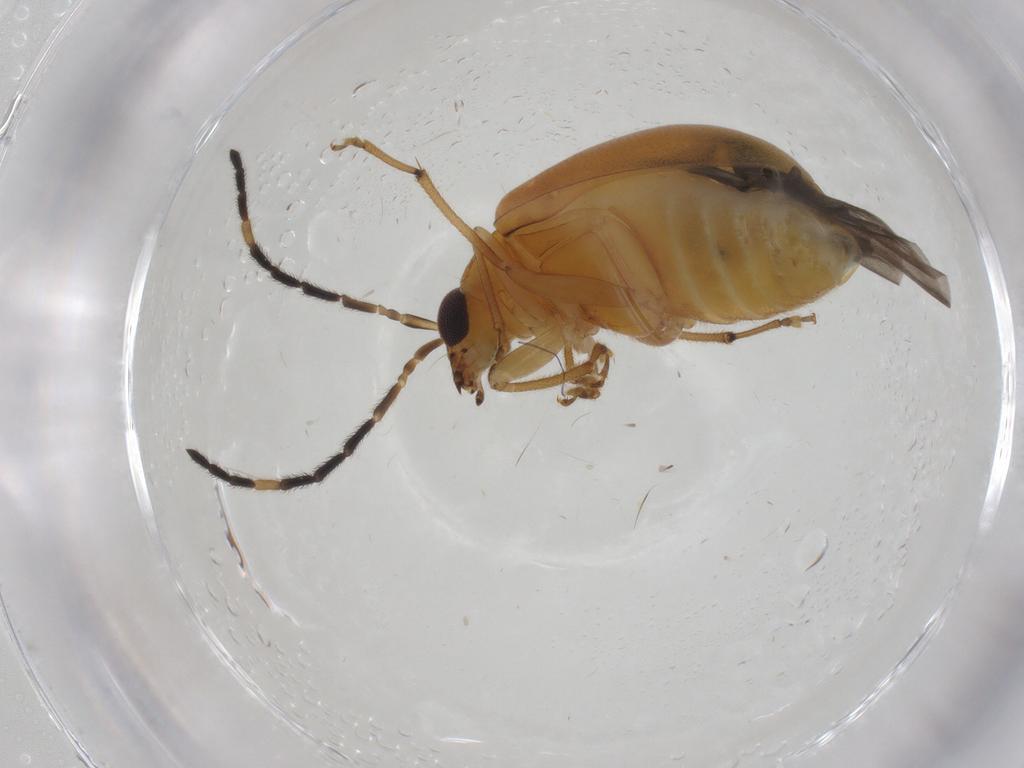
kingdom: Animalia
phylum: Arthropoda
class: Insecta
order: Coleoptera
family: Chrysomelidae
